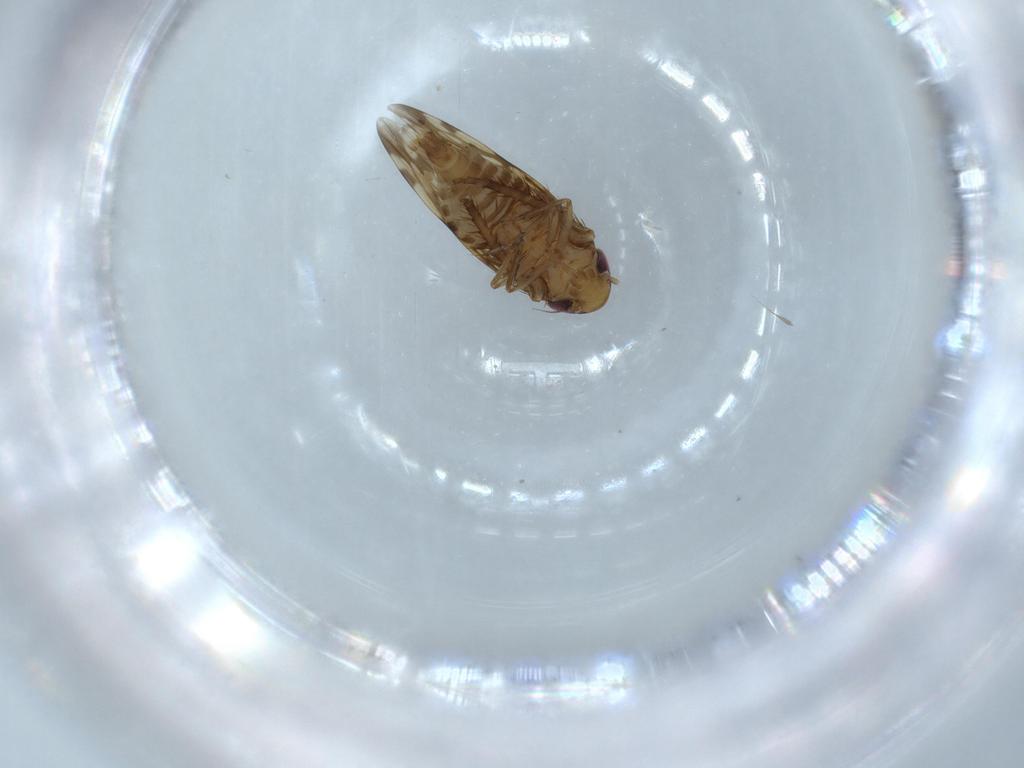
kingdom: Animalia
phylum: Arthropoda
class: Insecta
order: Hemiptera
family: Cicadellidae
